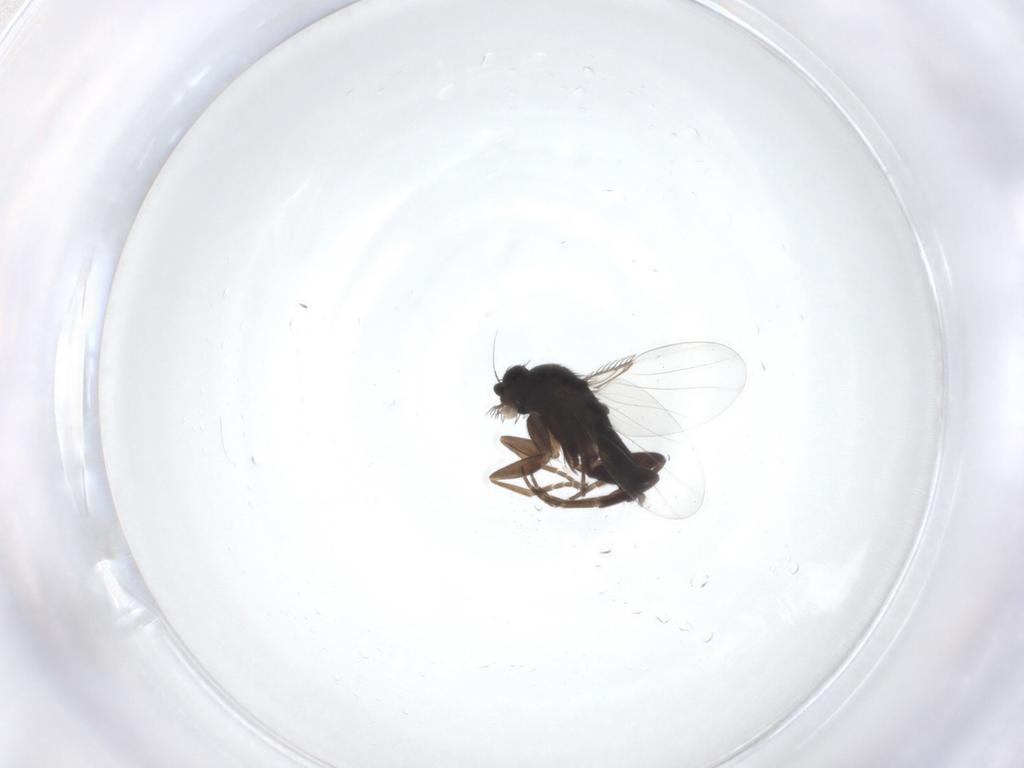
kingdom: Animalia
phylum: Arthropoda
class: Insecta
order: Diptera
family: Phoridae
